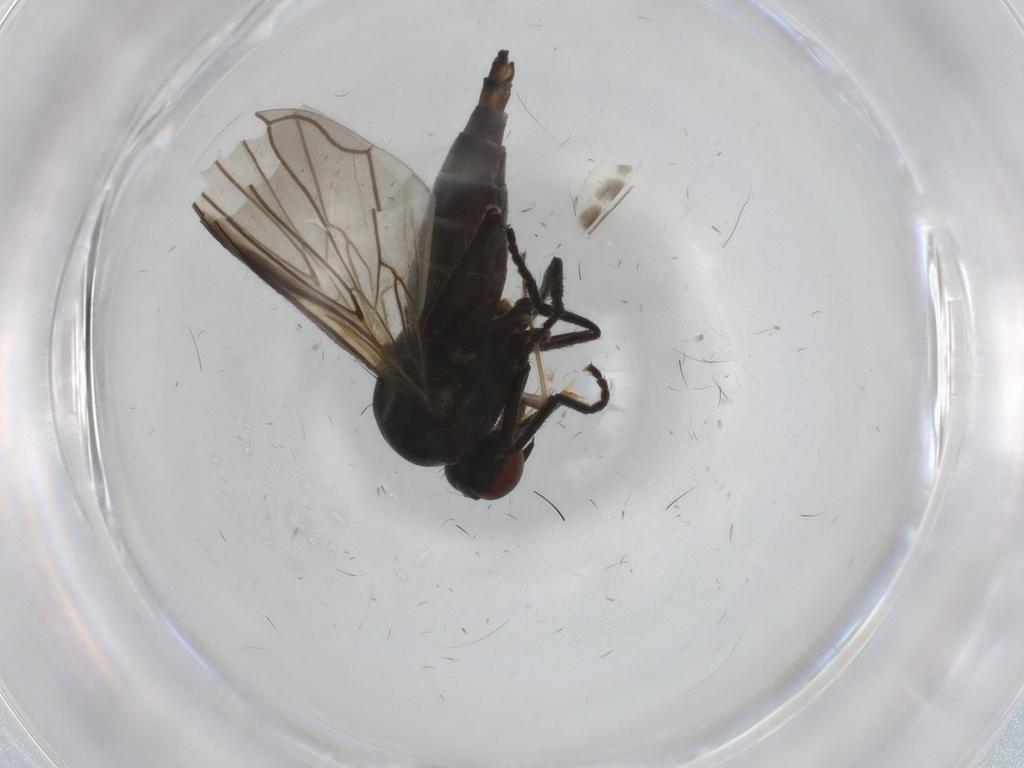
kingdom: Animalia
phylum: Arthropoda
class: Insecta
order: Diptera
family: Empididae
